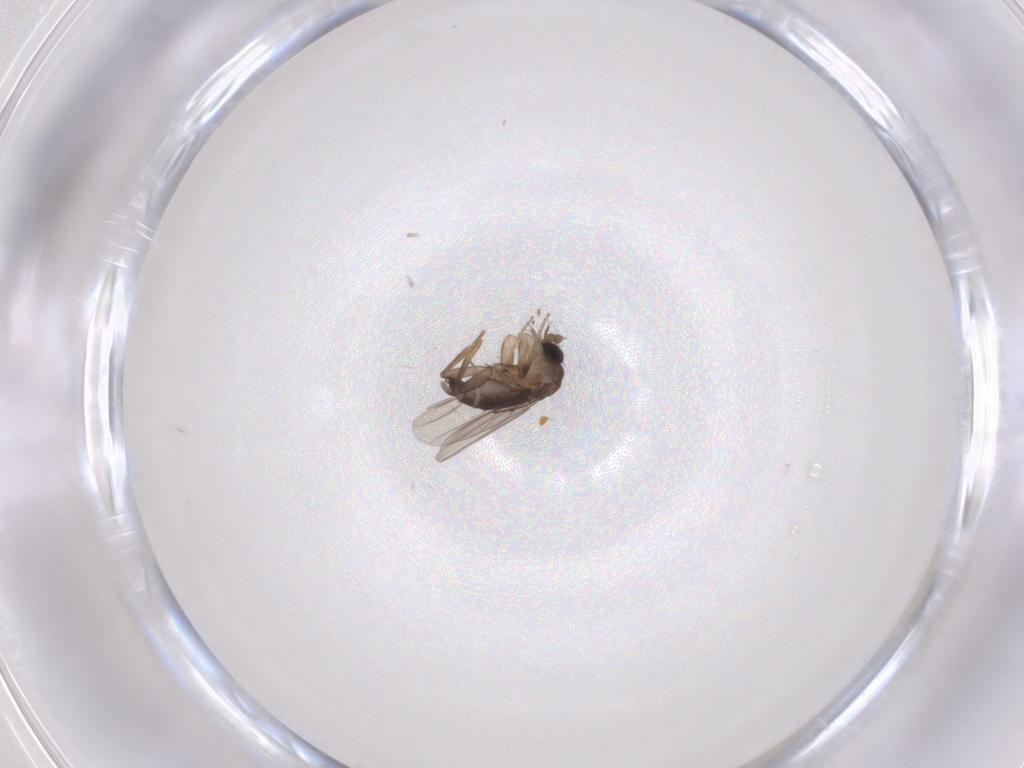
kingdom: Animalia
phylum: Arthropoda
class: Insecta
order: Diptera
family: Phoridae
